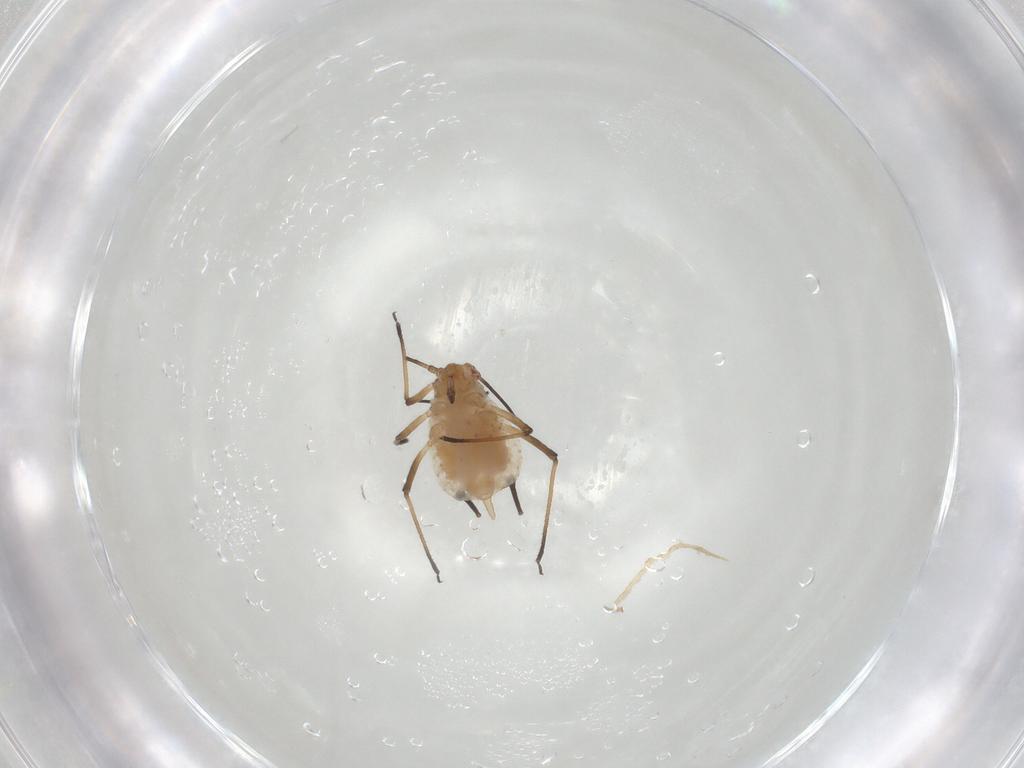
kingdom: Animalia
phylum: Arthropoda
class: Insecta
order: Hemiptera
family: Aphididae
